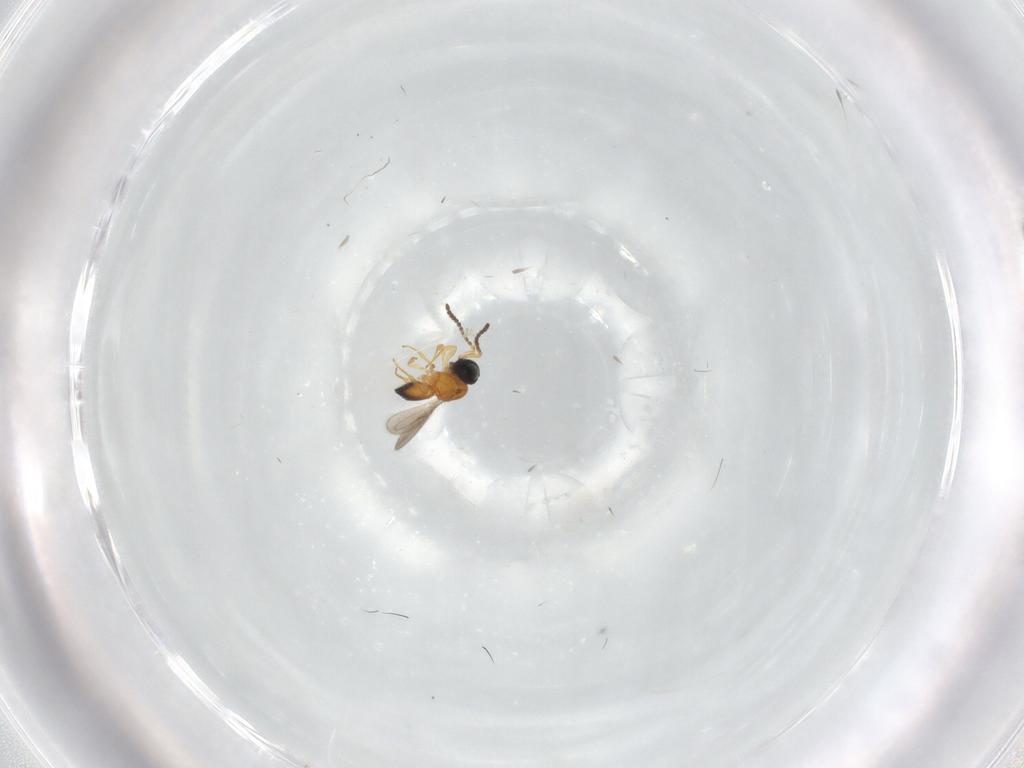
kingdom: Animalia
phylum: Arthropoda
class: Insecta
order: Hymenoptera
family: Scelionidae
